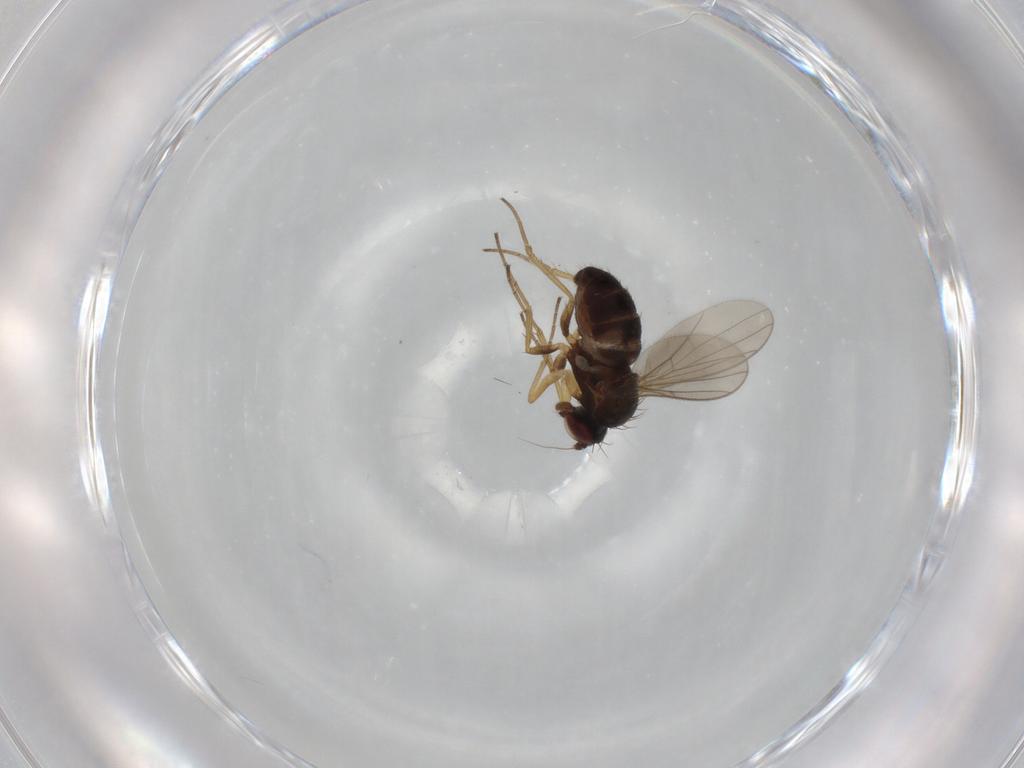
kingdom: Animalia
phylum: Arthropoda
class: Insecta
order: Diptera
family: Dolichopodidae
